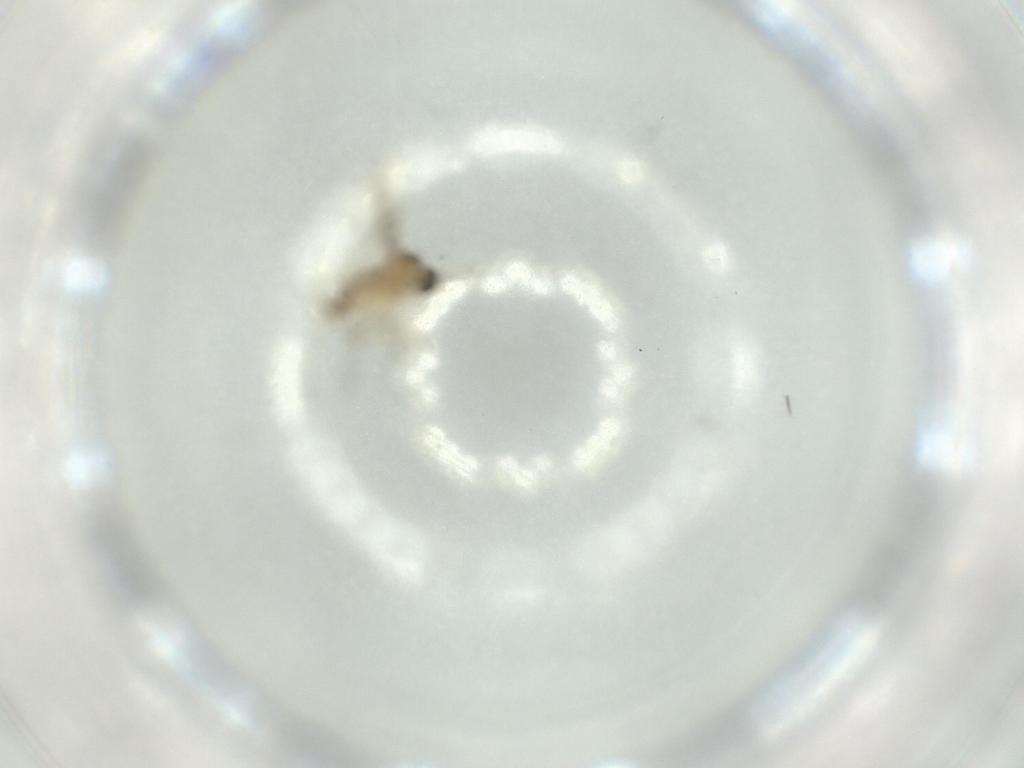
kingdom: Animalia
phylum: Arthropoda
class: Insecta
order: Diptera
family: Cecidomyiidae
